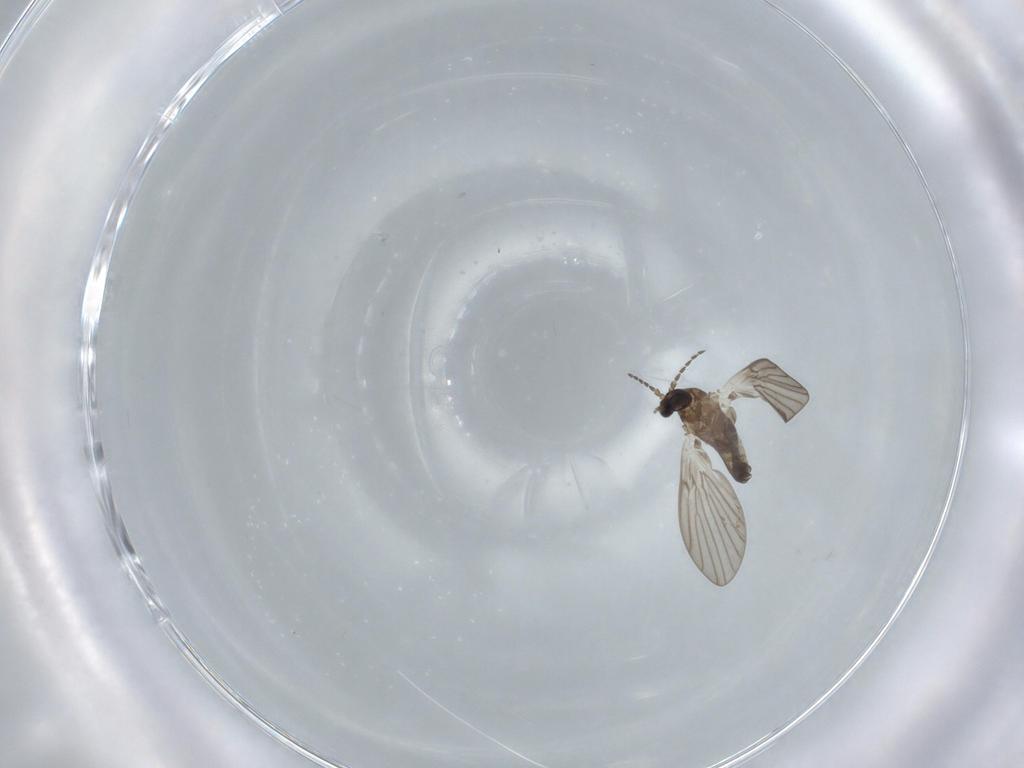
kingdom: Animalia
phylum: Arthropoda
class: Insecta
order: Diptera
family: Psychodidae
